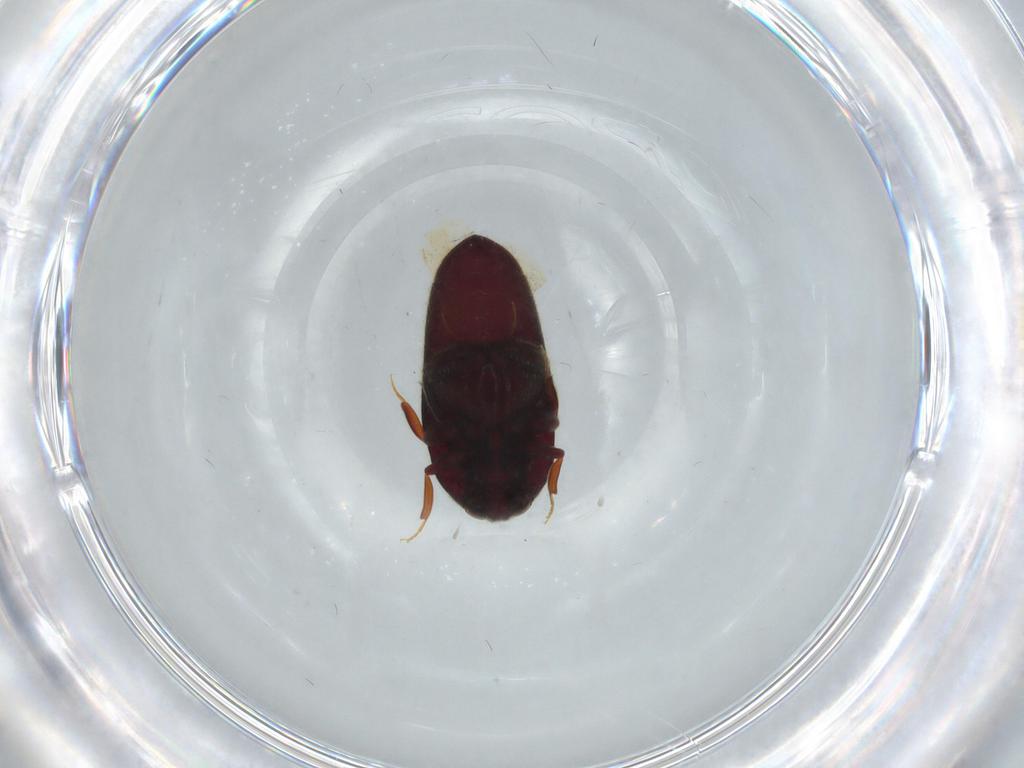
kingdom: Animalia
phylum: Arthropoda
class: Insecta
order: Coleoptera
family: Throscidae
